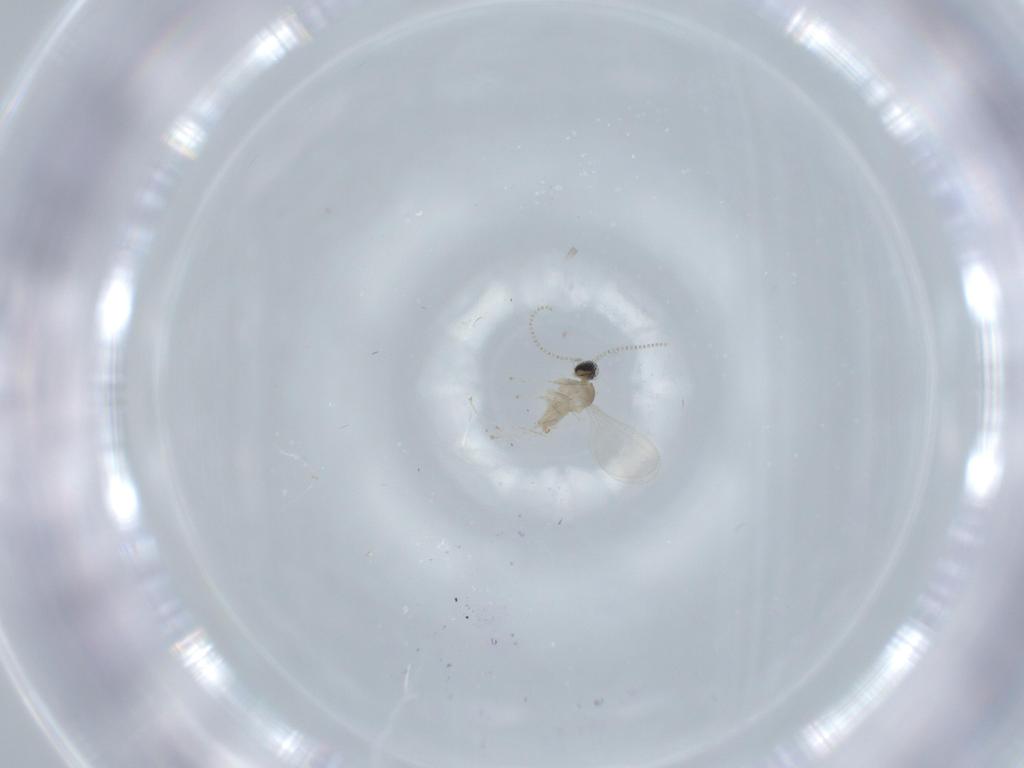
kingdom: Animalia
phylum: Arthropoda
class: Insecta
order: Diptera
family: Cecidomyiidae
